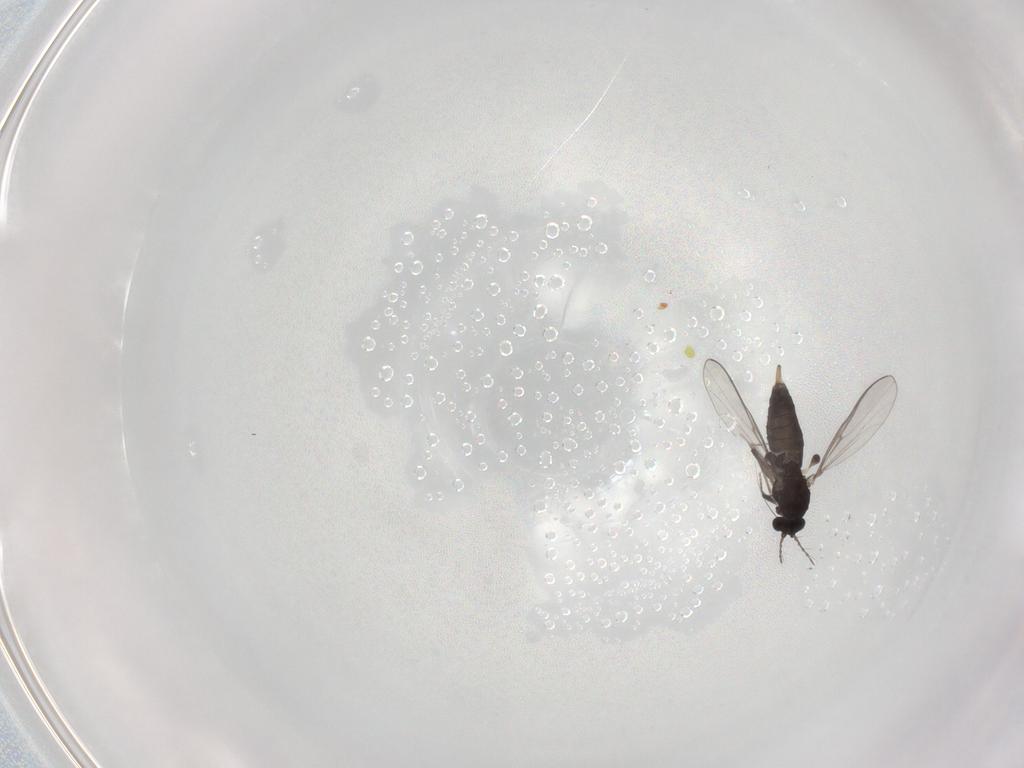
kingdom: Animalia
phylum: Arthropoda
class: Insecta
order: Diptera
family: Chironomidae
